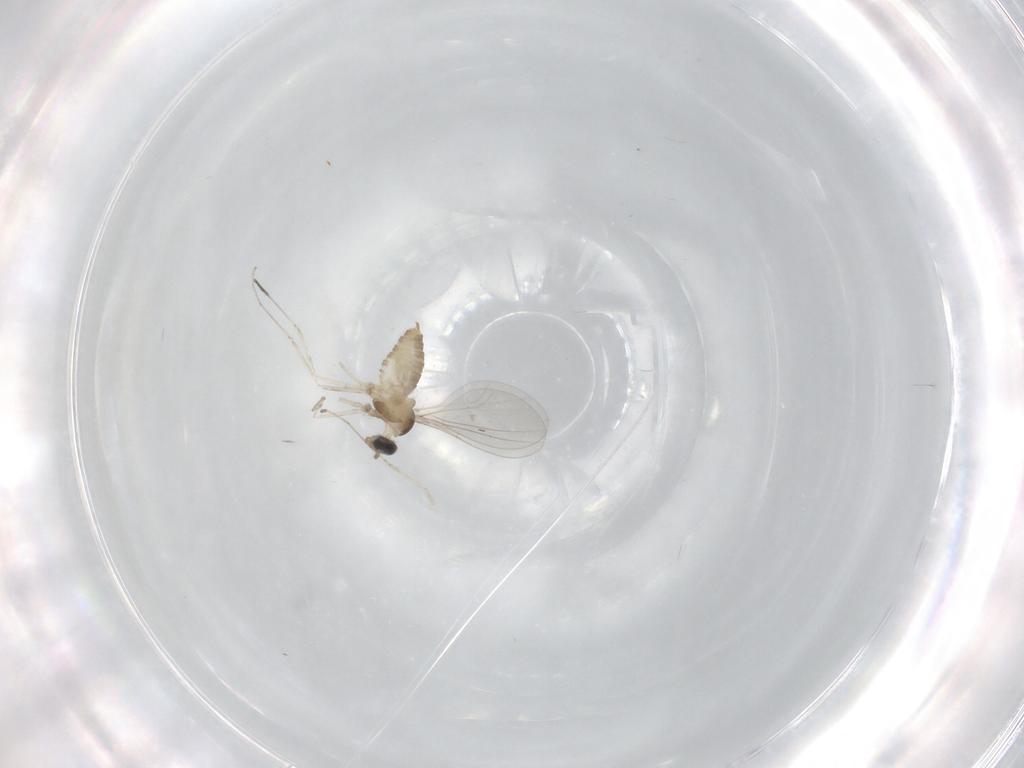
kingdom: Animalia
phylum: Arthropoda
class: Insecta
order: Diptera
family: Cecidomyiidae
